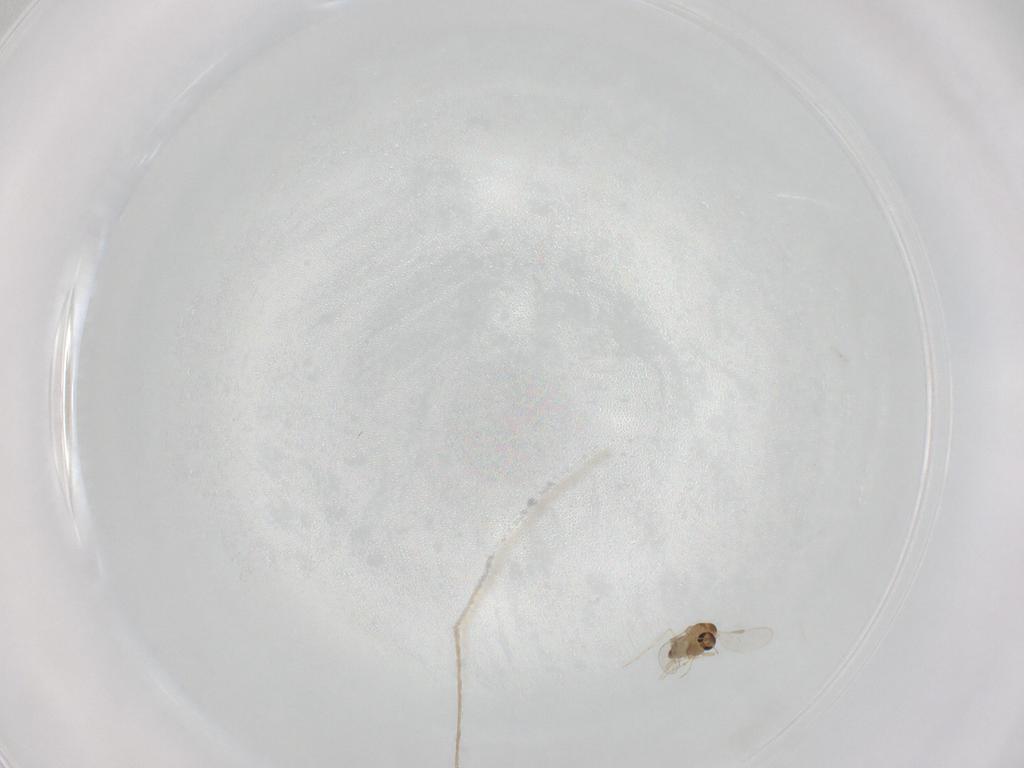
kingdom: Animalia
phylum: Arthropoda
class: Insecta
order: Diptera
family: Chironomidae
